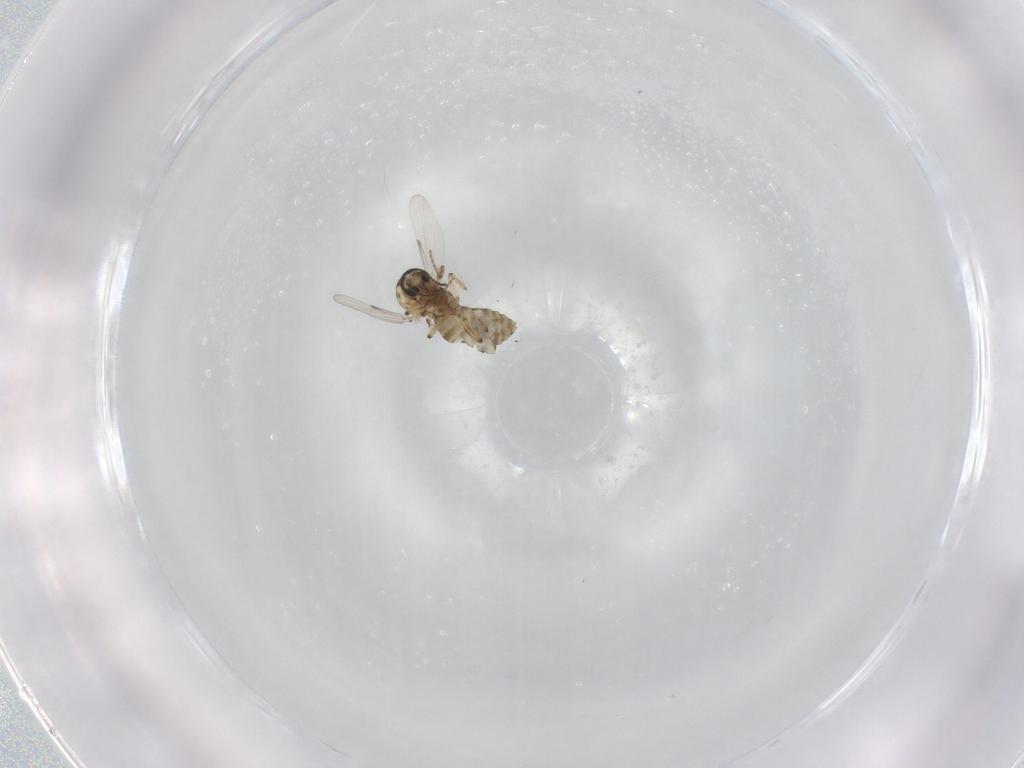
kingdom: Animalia
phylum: Arthropoda
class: Insecta
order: Diptera
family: Ceratopogonidae
